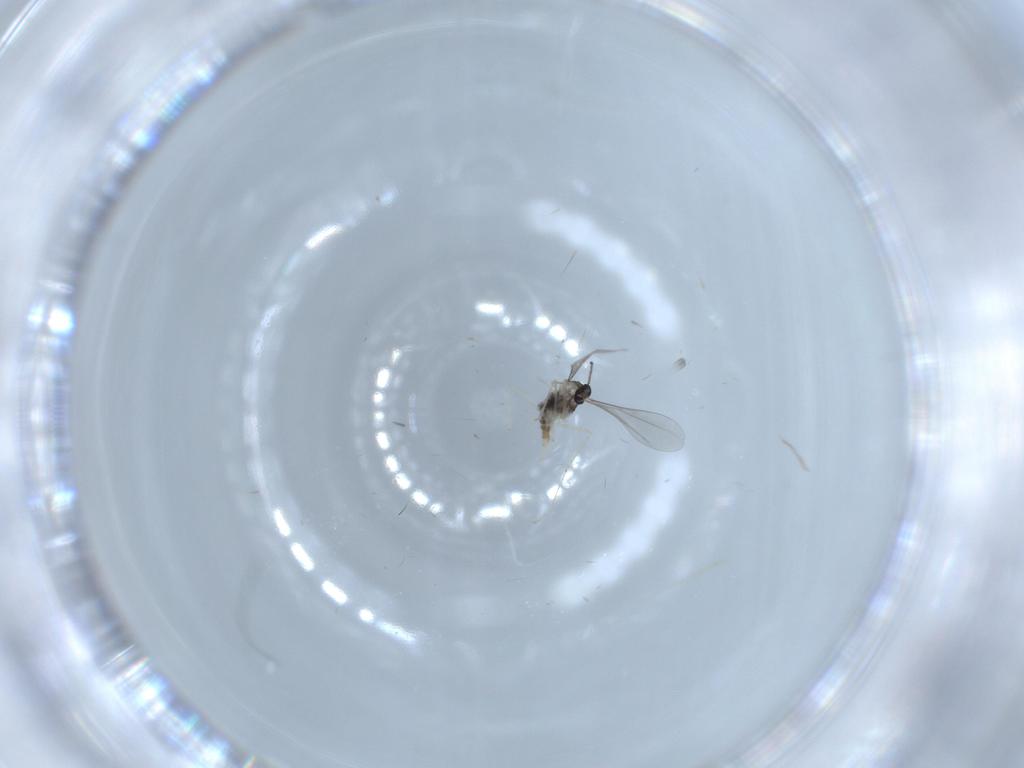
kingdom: Animalia
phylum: Arthropoda
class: Insecta
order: Diptera
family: Cecidomyiidae
